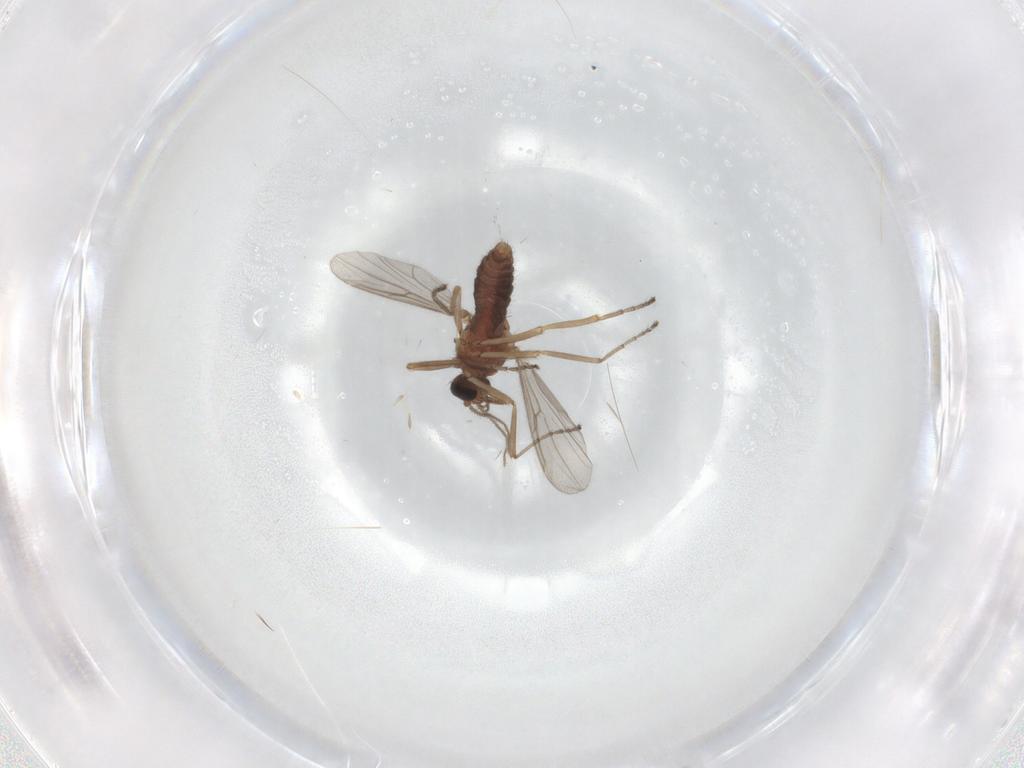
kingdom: Animalia
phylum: Arthropoda
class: Insecta
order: Diptera
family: Ceratopogonidae
